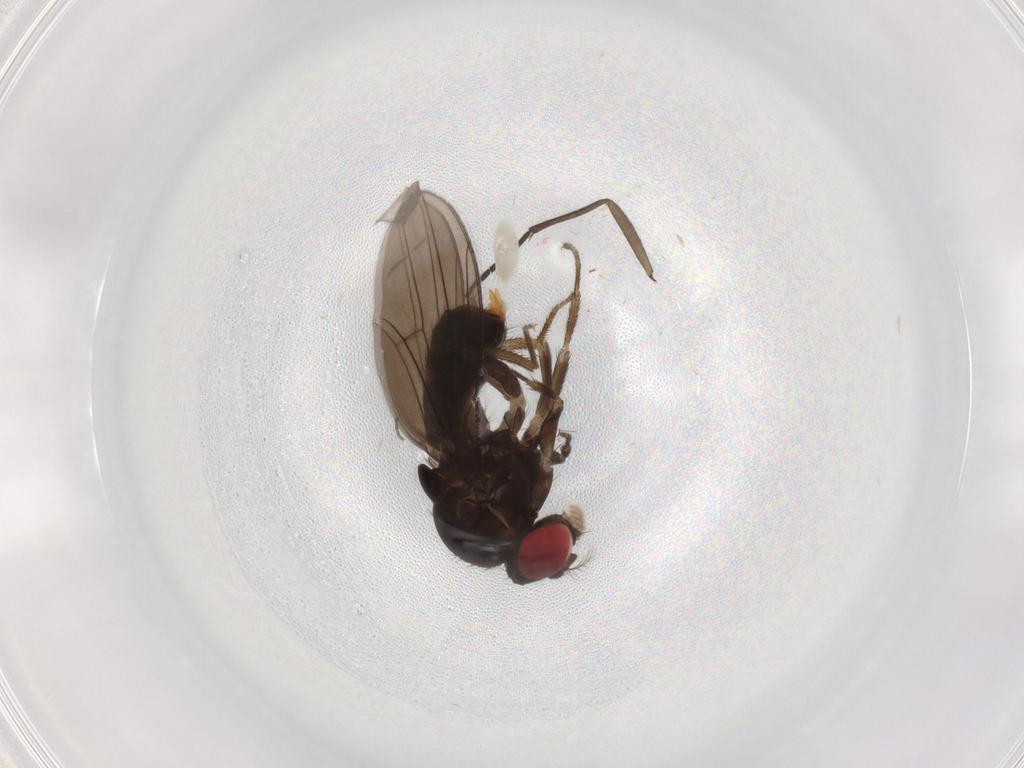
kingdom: Animalia
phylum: Arthropoda
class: Insecta
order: Diptera
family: Drosophilidae
